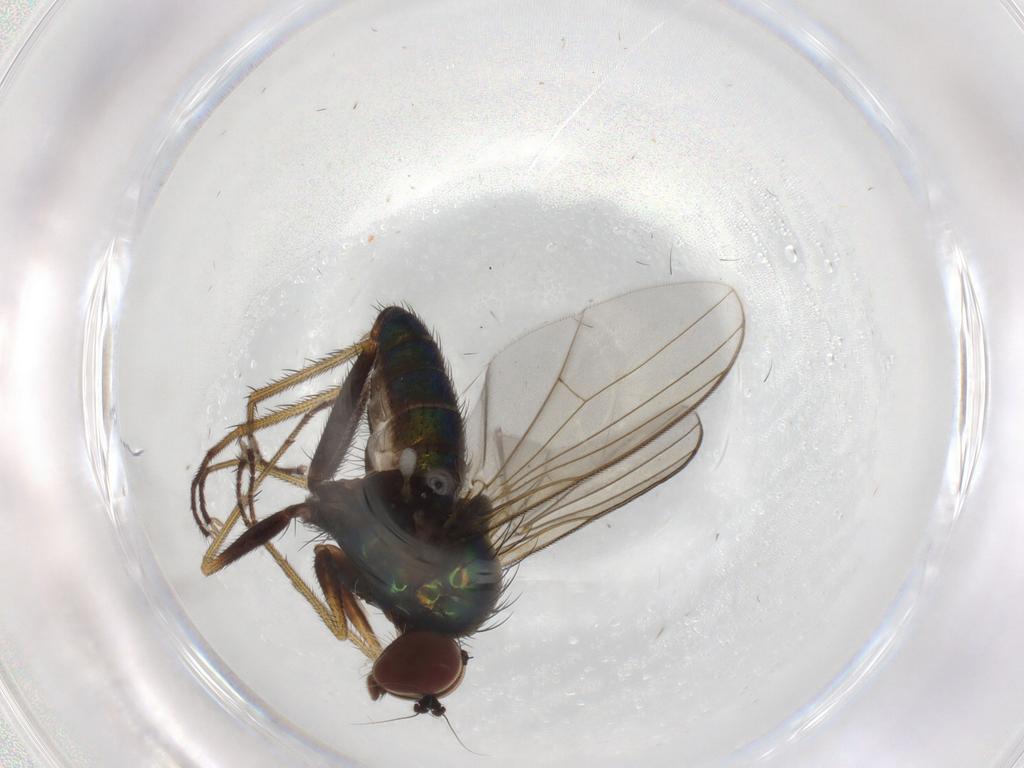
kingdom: Animalia
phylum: Arthropoda
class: Insecta
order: Diptera
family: Dolichopodidae
